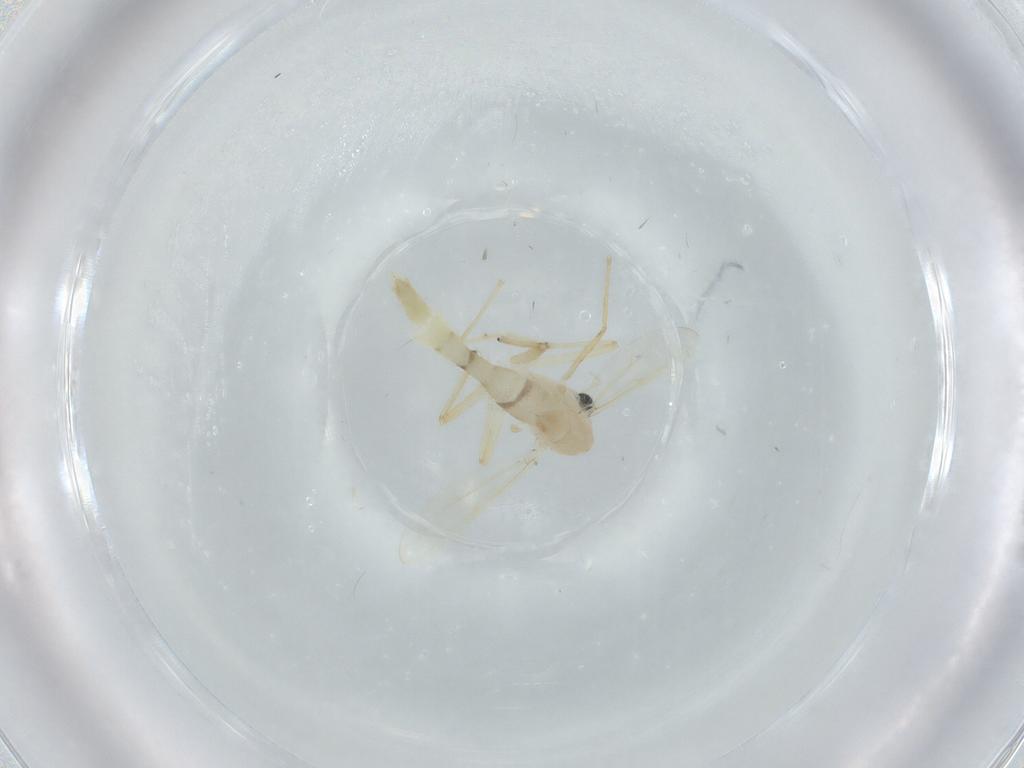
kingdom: Animalia
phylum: Arthropoda
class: Insecta
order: Diptera
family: Chironomidae
